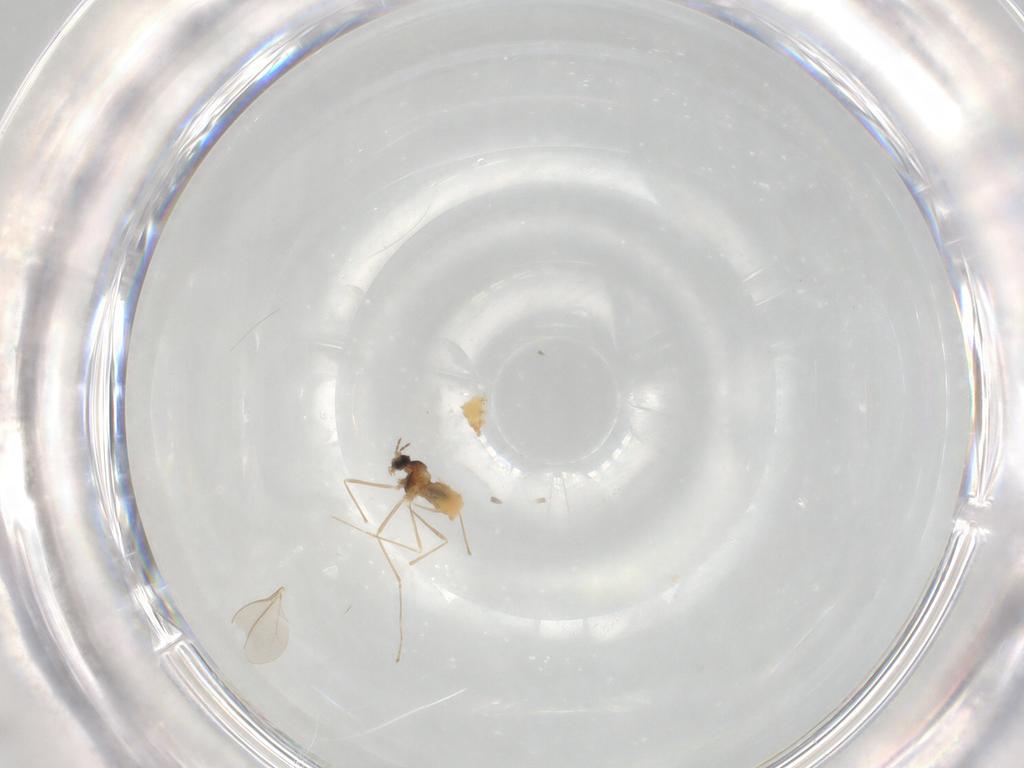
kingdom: Animalia
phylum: Arthropoda
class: Insecta
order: Diptera
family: Cecidomyiidae
